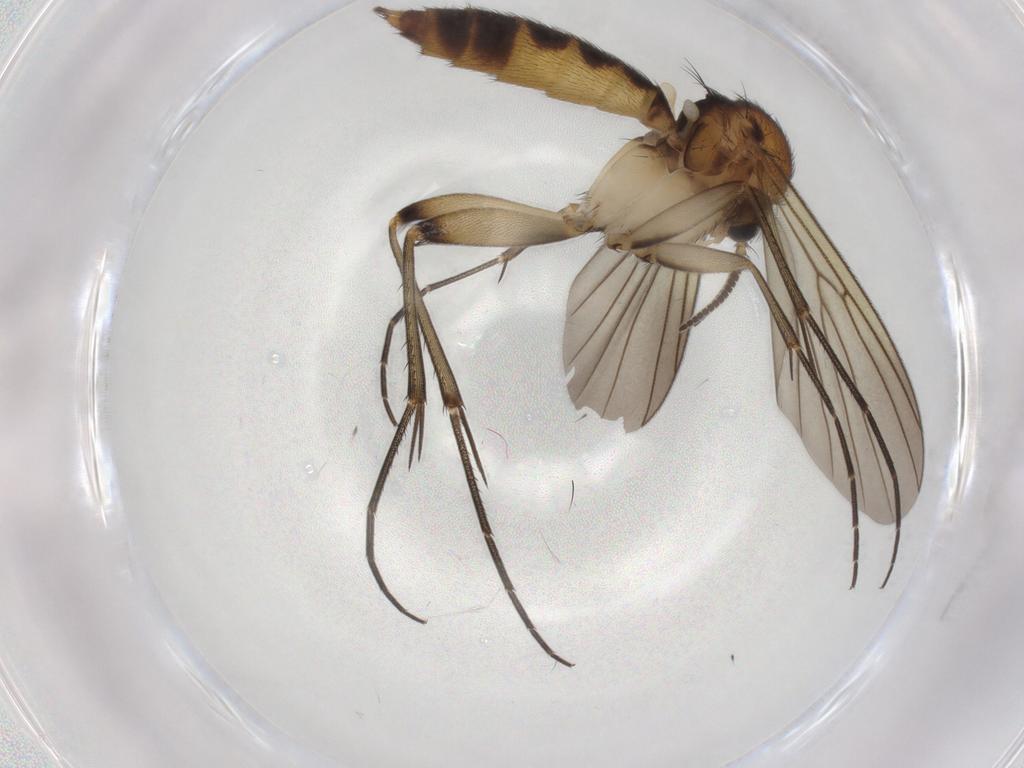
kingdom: Animalia
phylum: Arthropoda
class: Insecta
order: Diptera
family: Mycetophilidae
